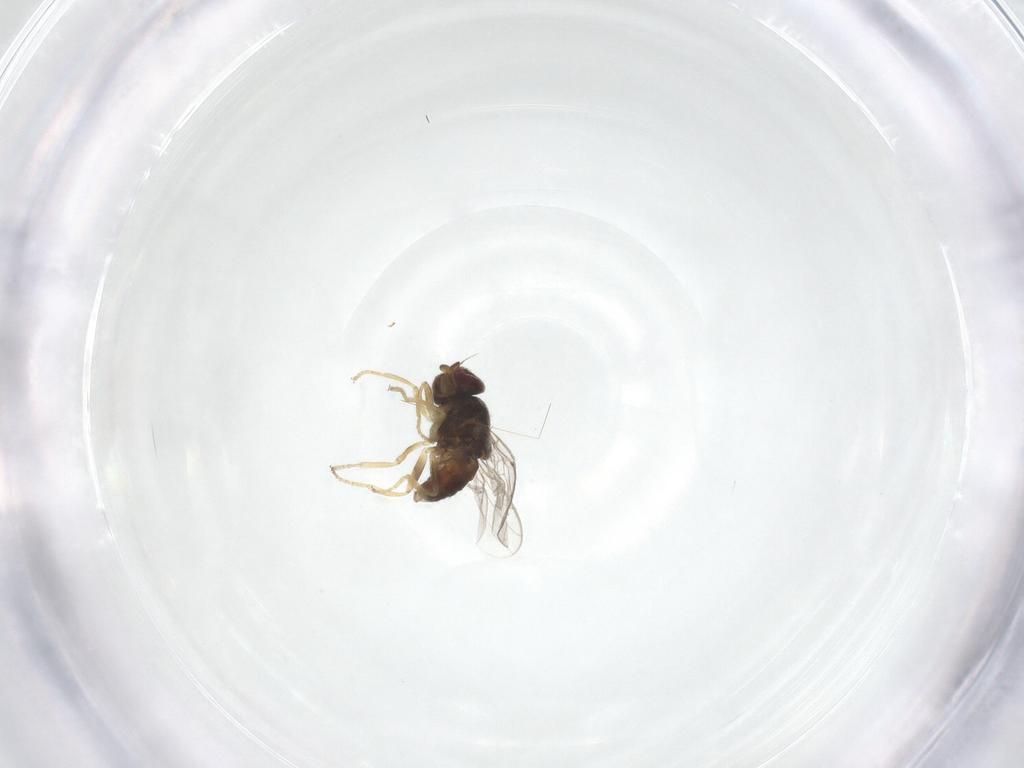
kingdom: Animalia
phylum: Arthropoda
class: Insecta
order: Diptera
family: Chloropidae
